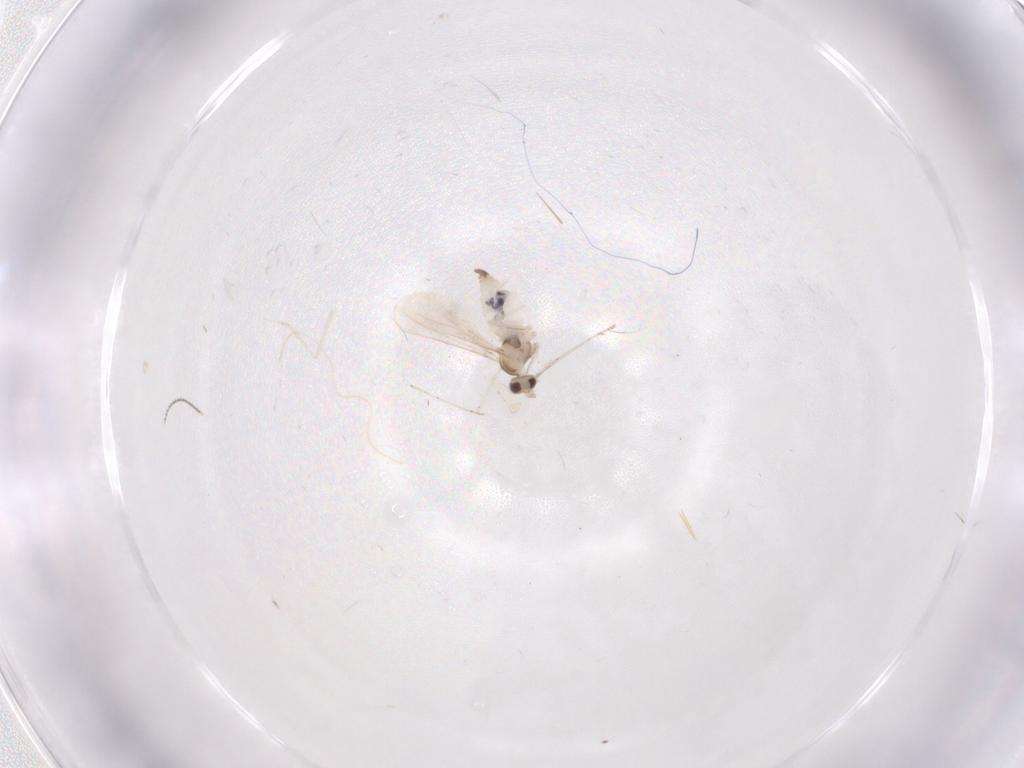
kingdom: Animalia
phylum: Arthropoda
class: Insecta
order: Diptera
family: Cecidomyiidae
